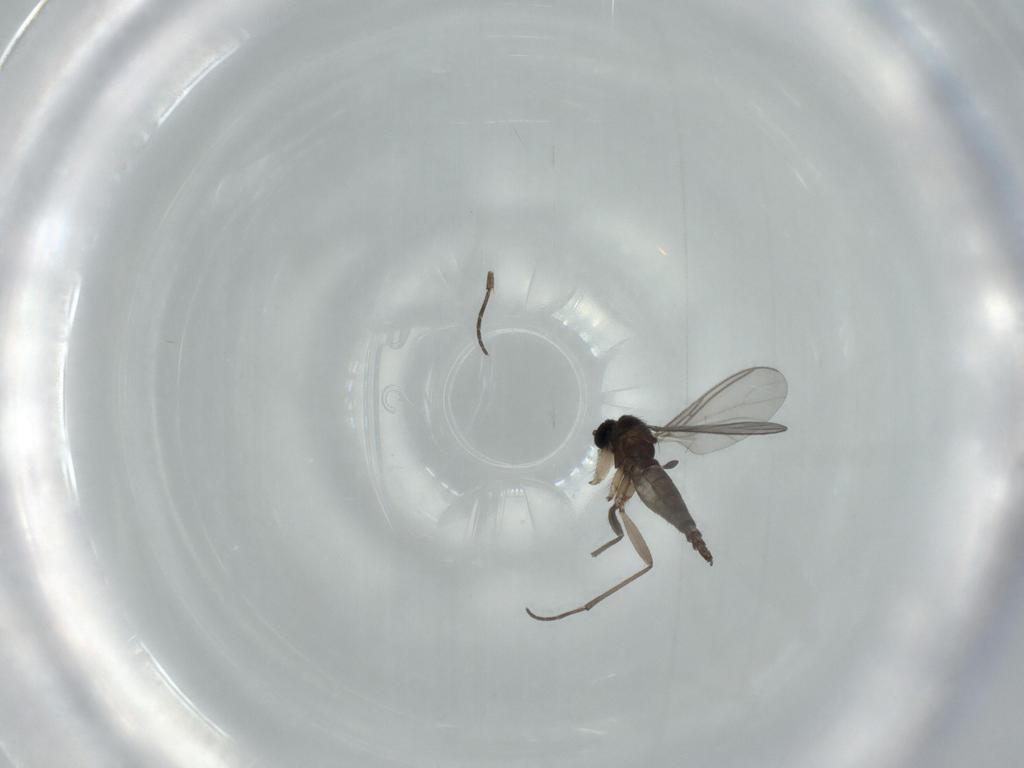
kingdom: Animalia
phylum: Arthropoda
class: Insecta
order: Diptera
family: Sciaridae
